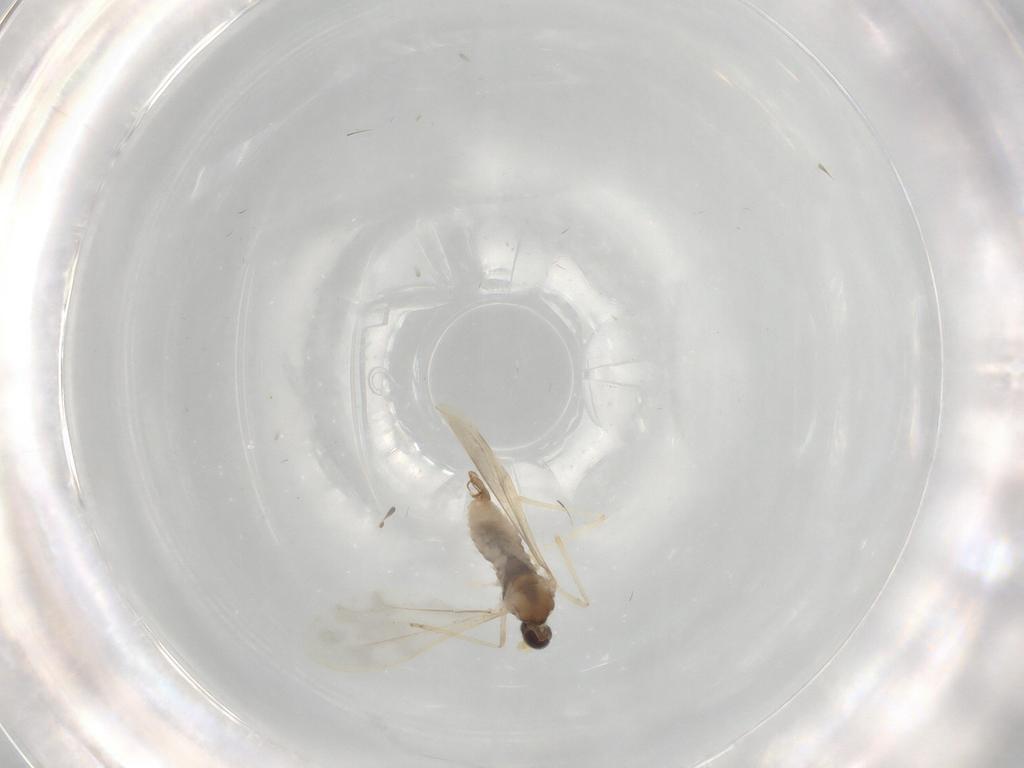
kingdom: Animalia
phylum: Arthropoda
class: Insecta
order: Diptera
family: Cecidomyiidae
